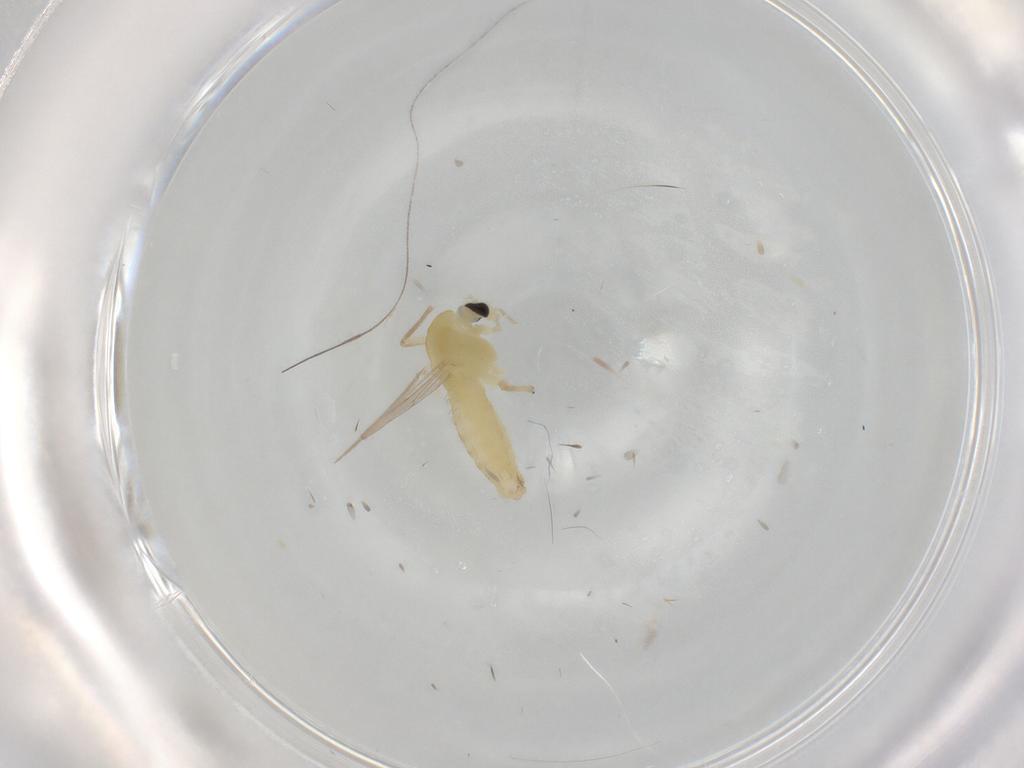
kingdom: Animalia
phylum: Arthropoda
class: Insecta
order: Diptera
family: Chironomidae
